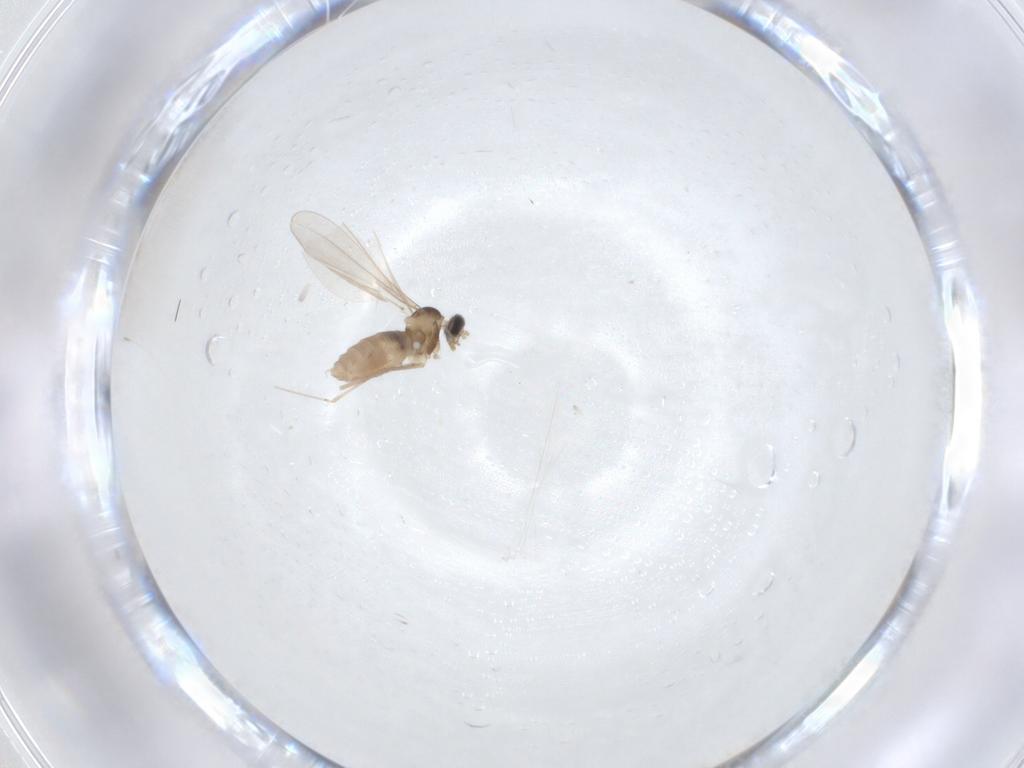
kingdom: Animalia
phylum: Arthropoda
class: Insecta
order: Diptera
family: Cecidomyiidae
